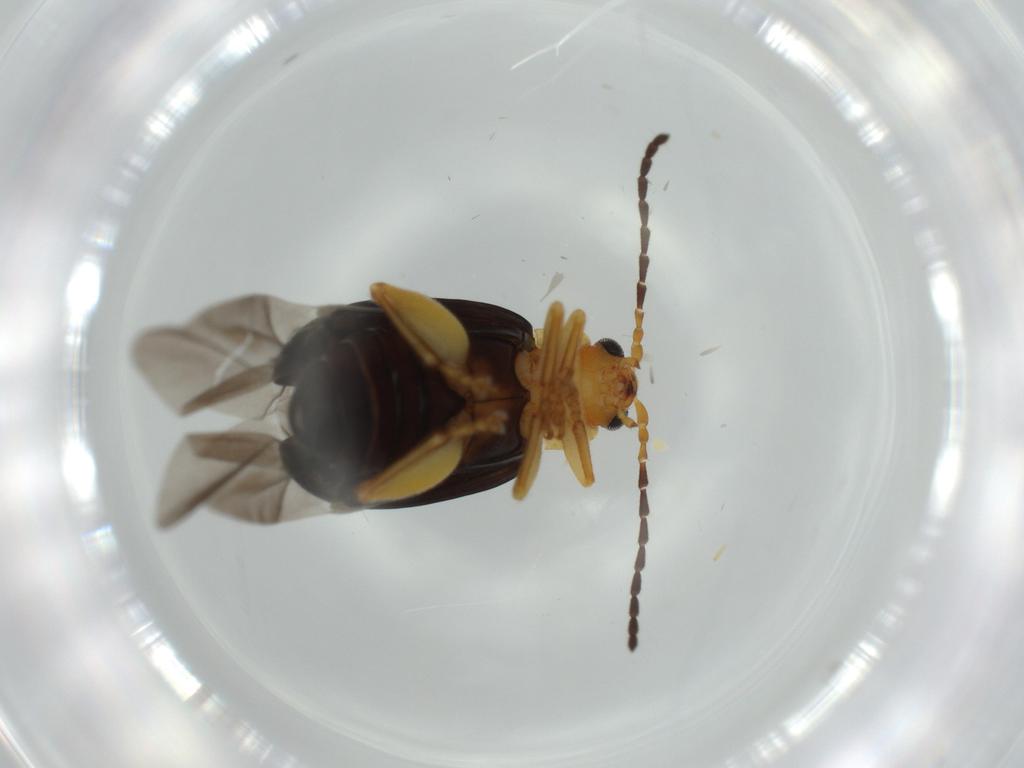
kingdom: Animalia
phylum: Arthropoda
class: Insecta
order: Coleoptera
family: Chrysomelidae
